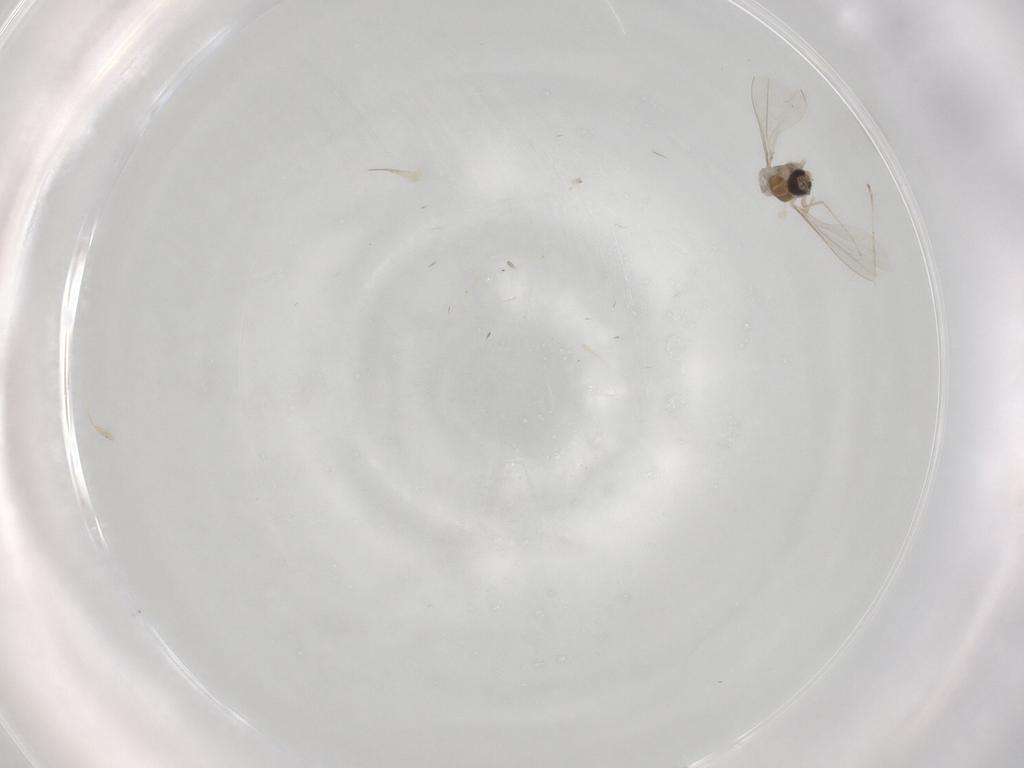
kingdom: Animalia
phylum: Arthropoda
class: Insecta
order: Diptera
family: Cecidomyiidae
